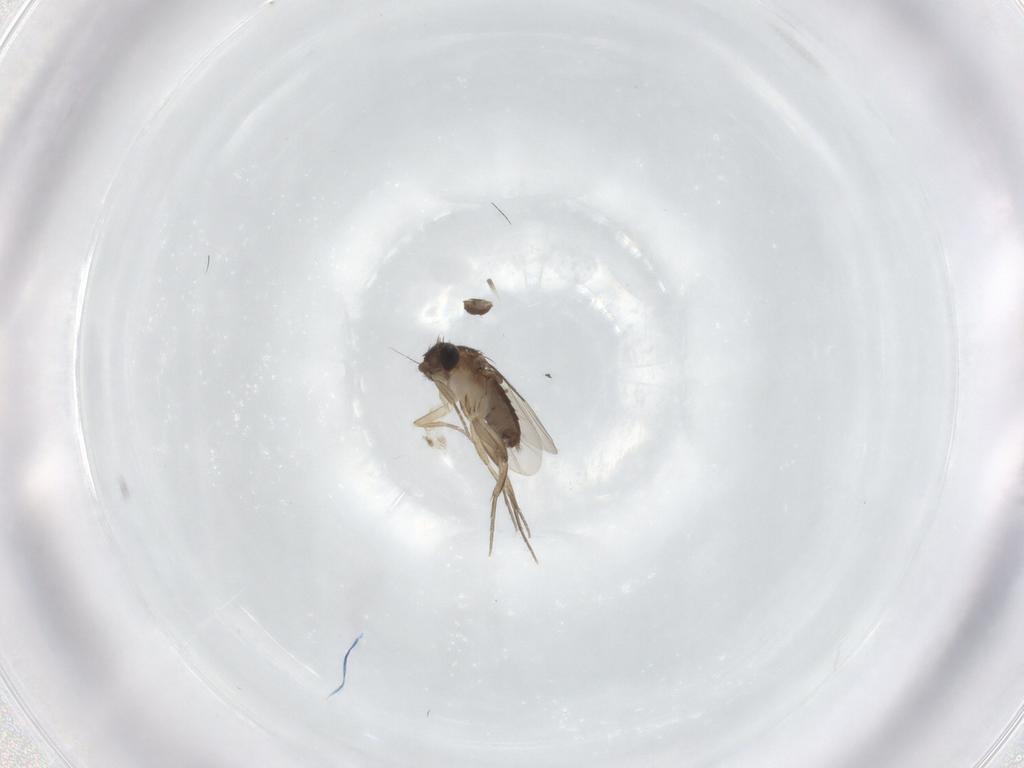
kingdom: Animalia
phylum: Arthropoda
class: Insecta
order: Diptera
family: Phoridae
